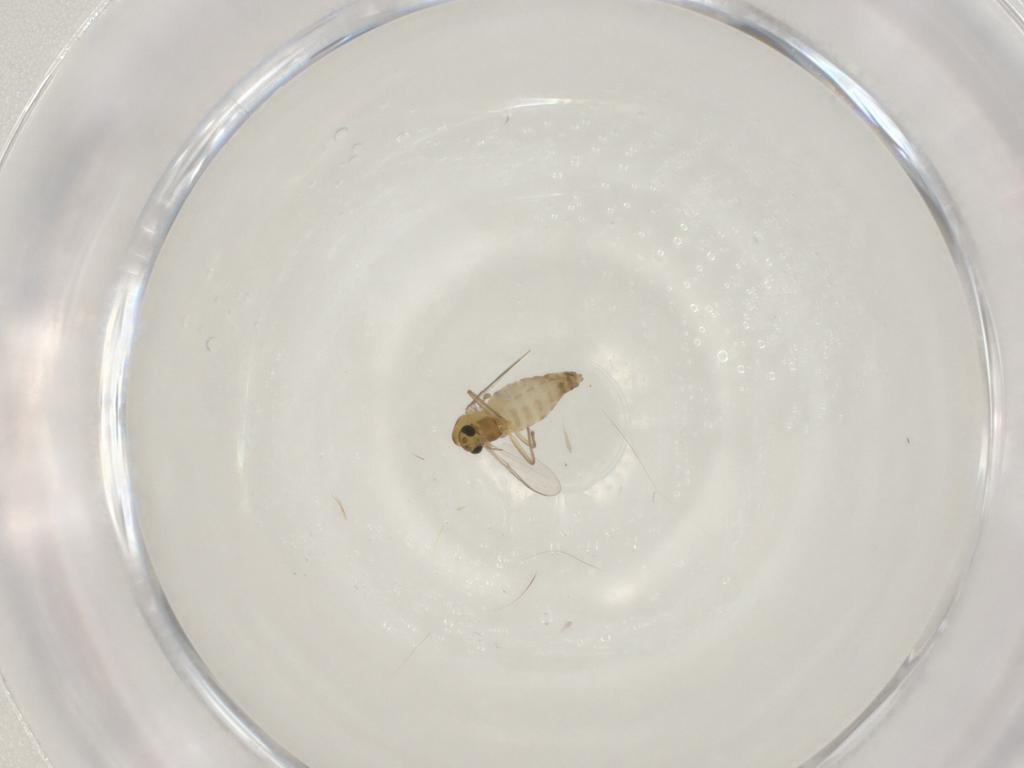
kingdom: Animalia
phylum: Arthropoda
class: Insecta
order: Diptera
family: Chironomidae
